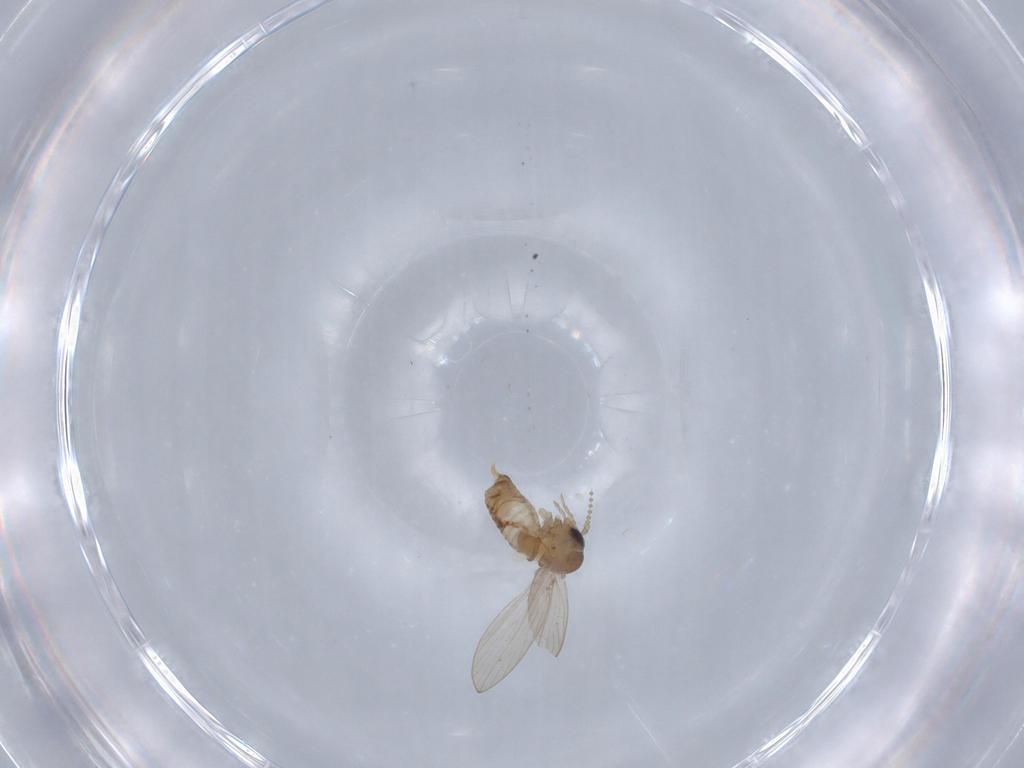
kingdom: Animalia
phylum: Arthropoda
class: Insecta
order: Diptera
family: Psychodidae
